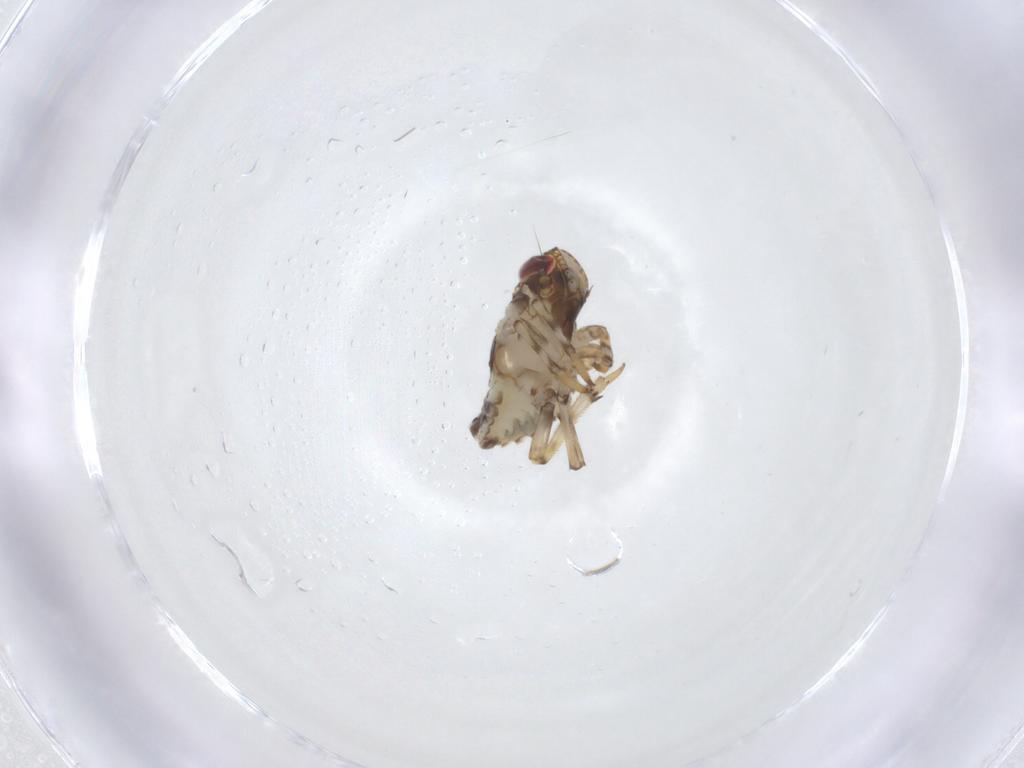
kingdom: Animalia
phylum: Arthropoda
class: Insecta
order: Hemiptera
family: Issidae
